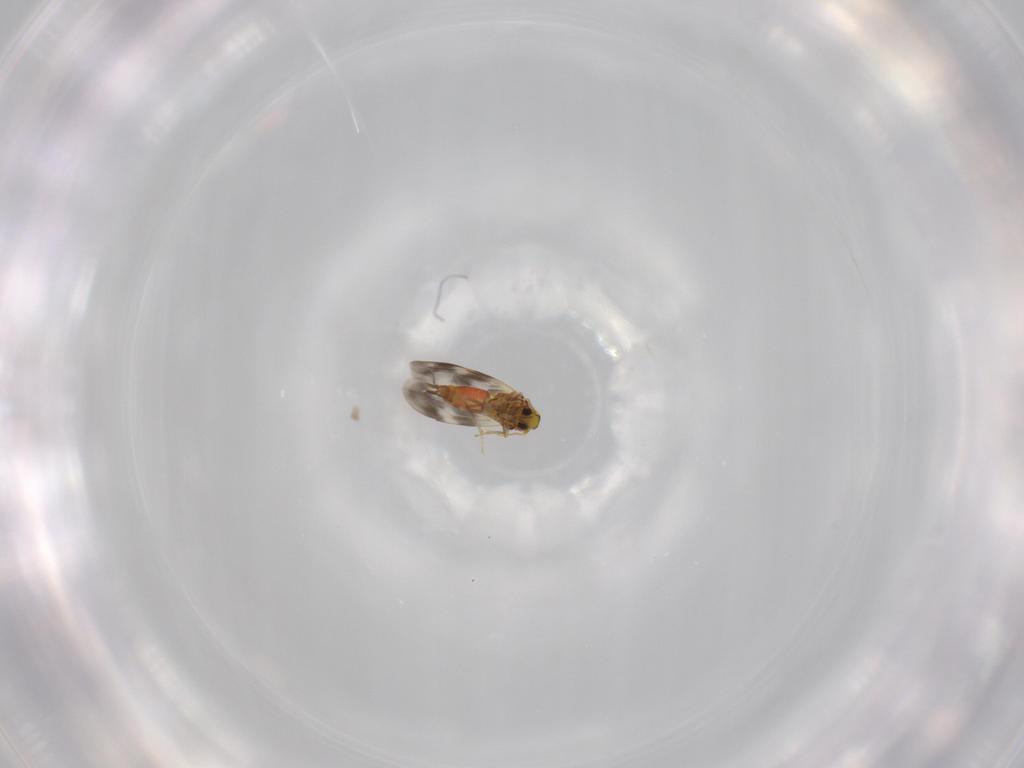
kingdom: Animalia
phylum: Arthropoda
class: Insecta
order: Hemiptera
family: Aleyrodidae
